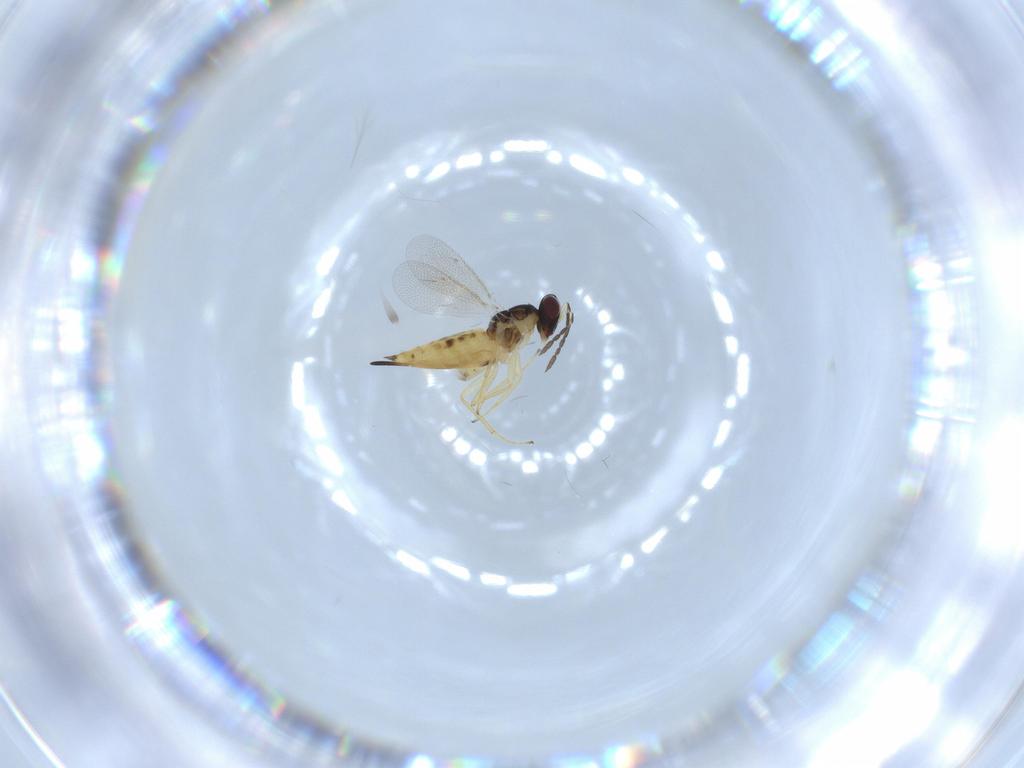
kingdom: Animalia
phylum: Arthropoda
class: Insecta
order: Hymenoptera
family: Eulophidae
